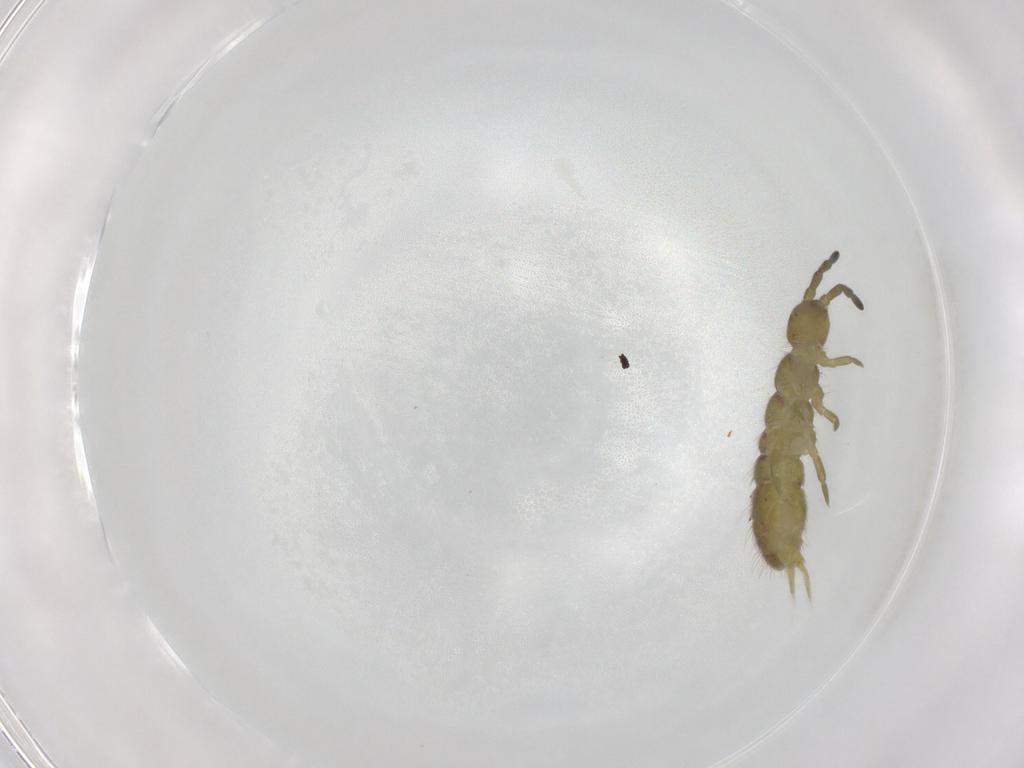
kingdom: Animalia
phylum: Arthropoda
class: Collembola
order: Entomobryomorpha
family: Isotomidae
